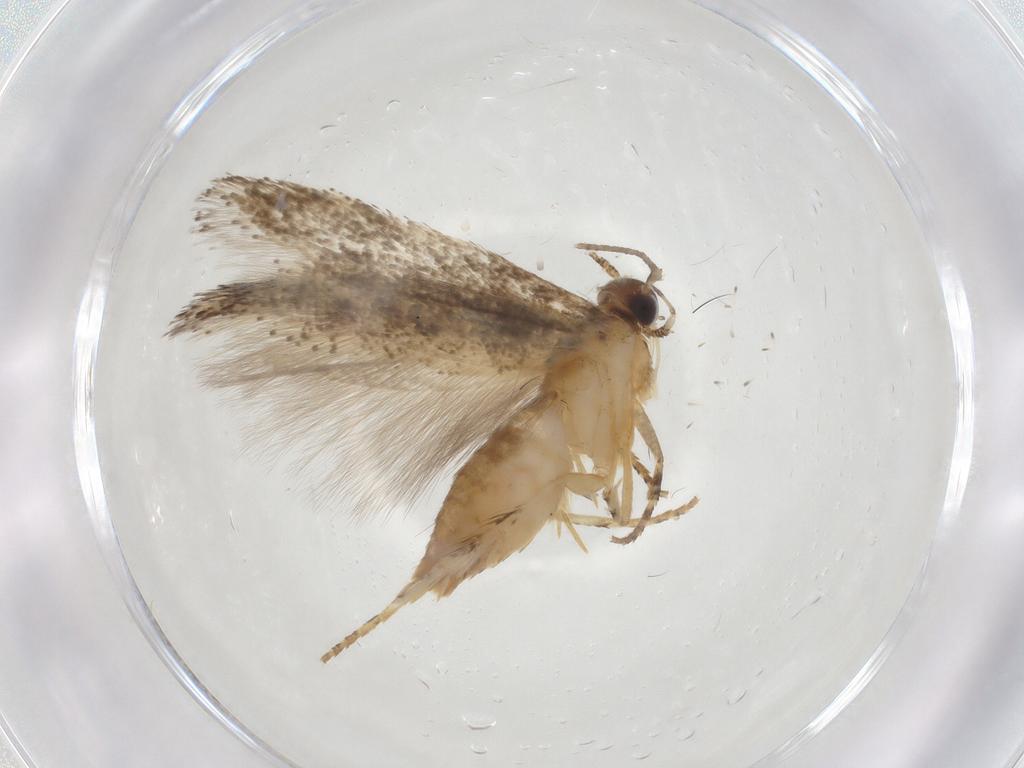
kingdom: Animalia
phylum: Arthropoda
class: Insecta
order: Lepidoptera
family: Gelechiidae
